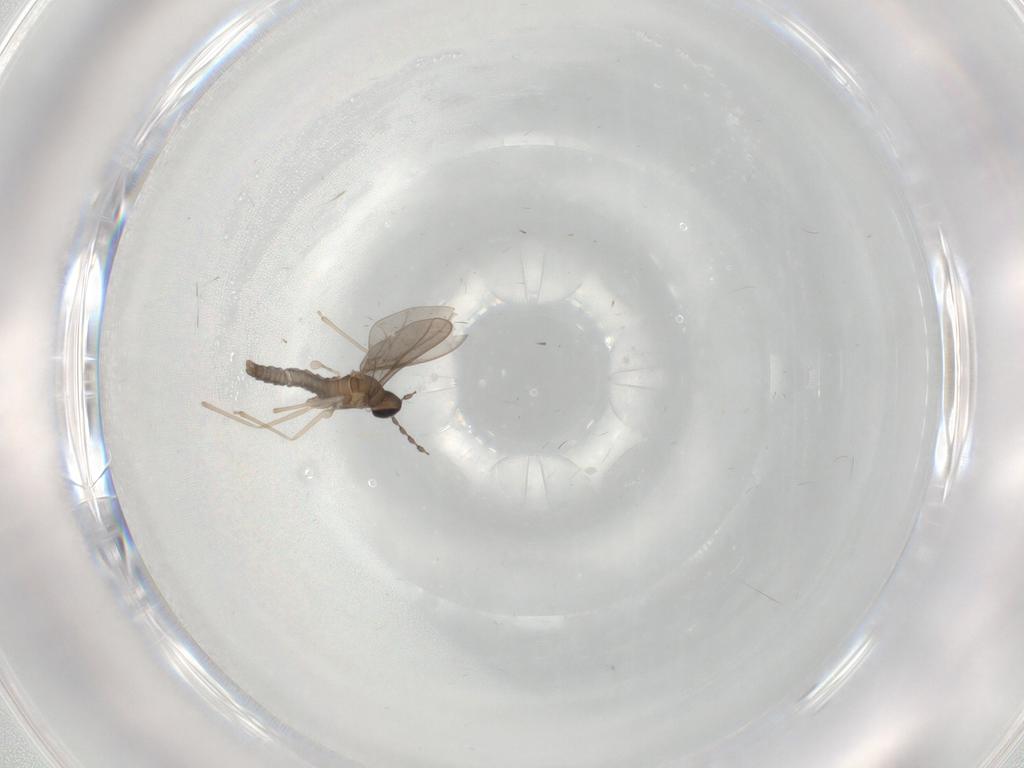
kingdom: Animalia
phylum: Arthropoda
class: Insecta
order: Diptera
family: Cecidomyiidae
